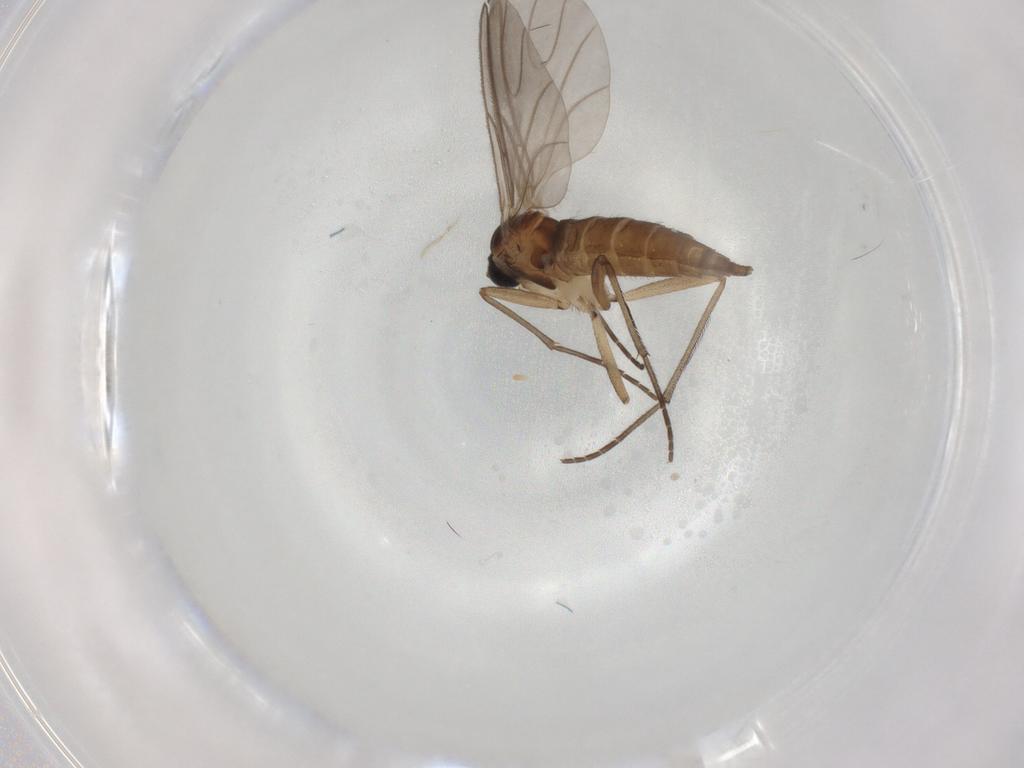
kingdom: Animalia
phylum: Arthropoda
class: Insecta
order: Diptera
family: Sciaridae
